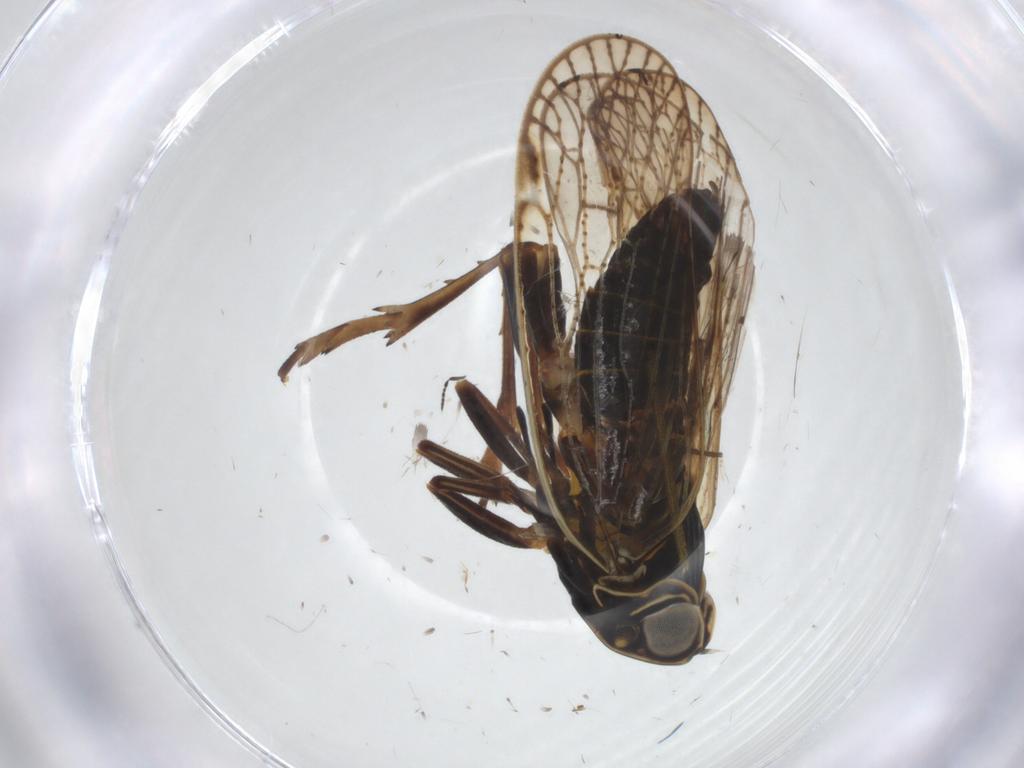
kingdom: Animalia
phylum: Arthropoda
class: Insecta
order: Hemiptera
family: Cixiidae
